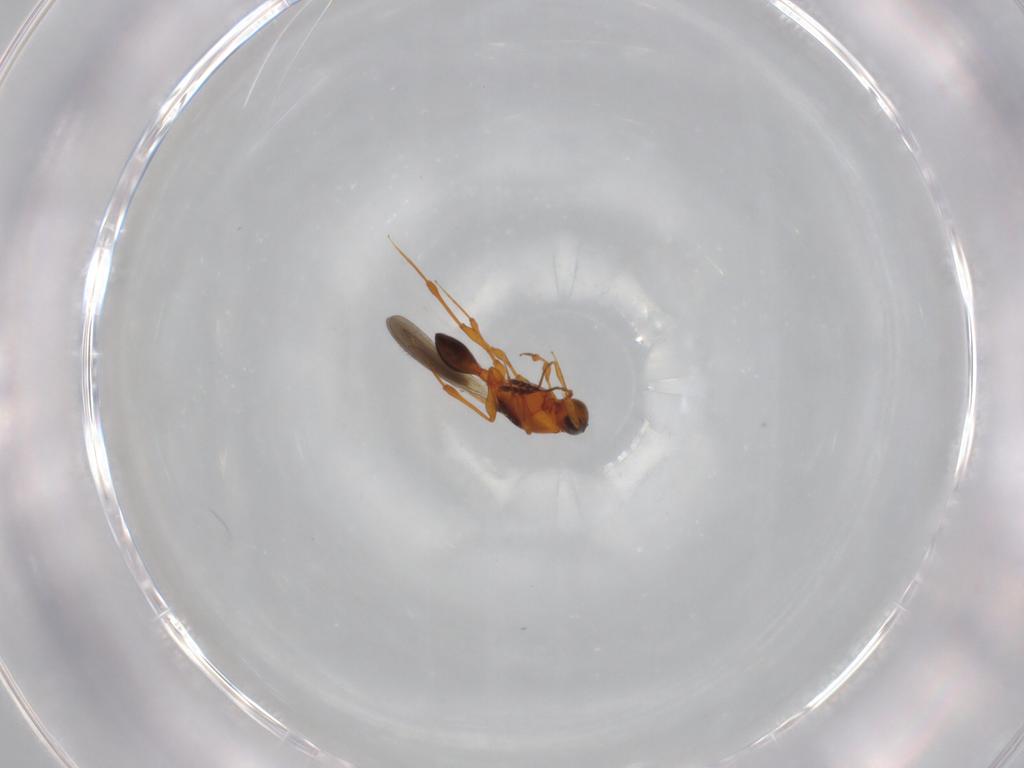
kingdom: Animalia
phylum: Arthropoda
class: Insecta
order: Hymenoptera
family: Platygastridae
